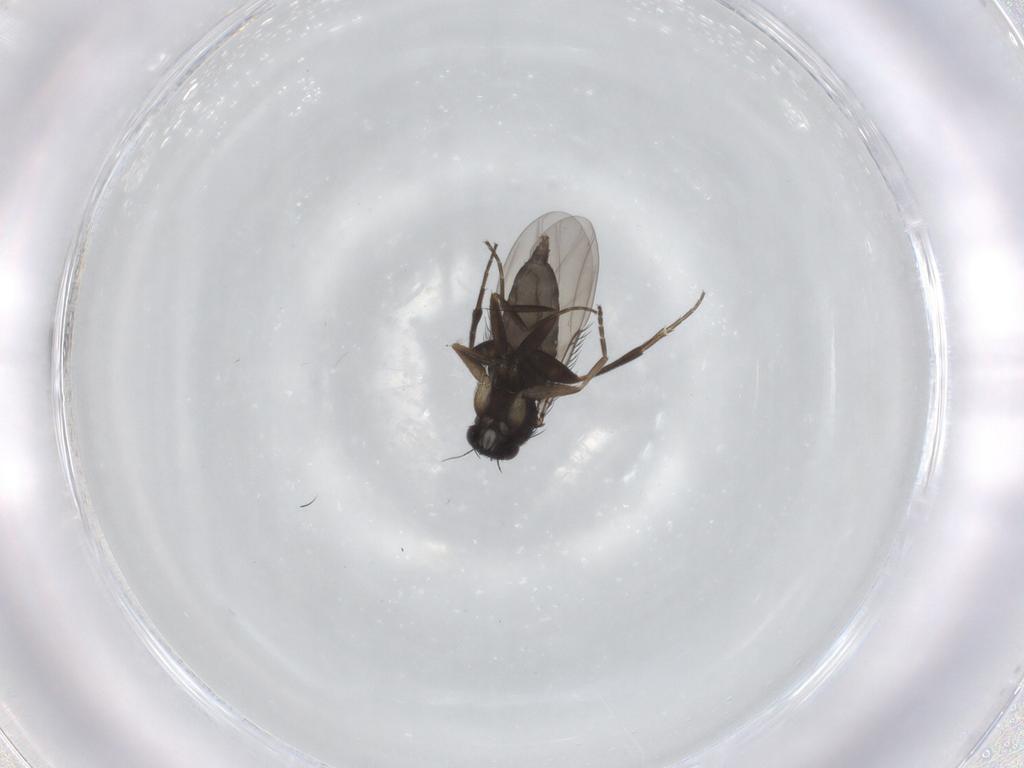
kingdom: Animalia
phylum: Arthropoda
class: Insecta
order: Diptera
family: Phoridae
